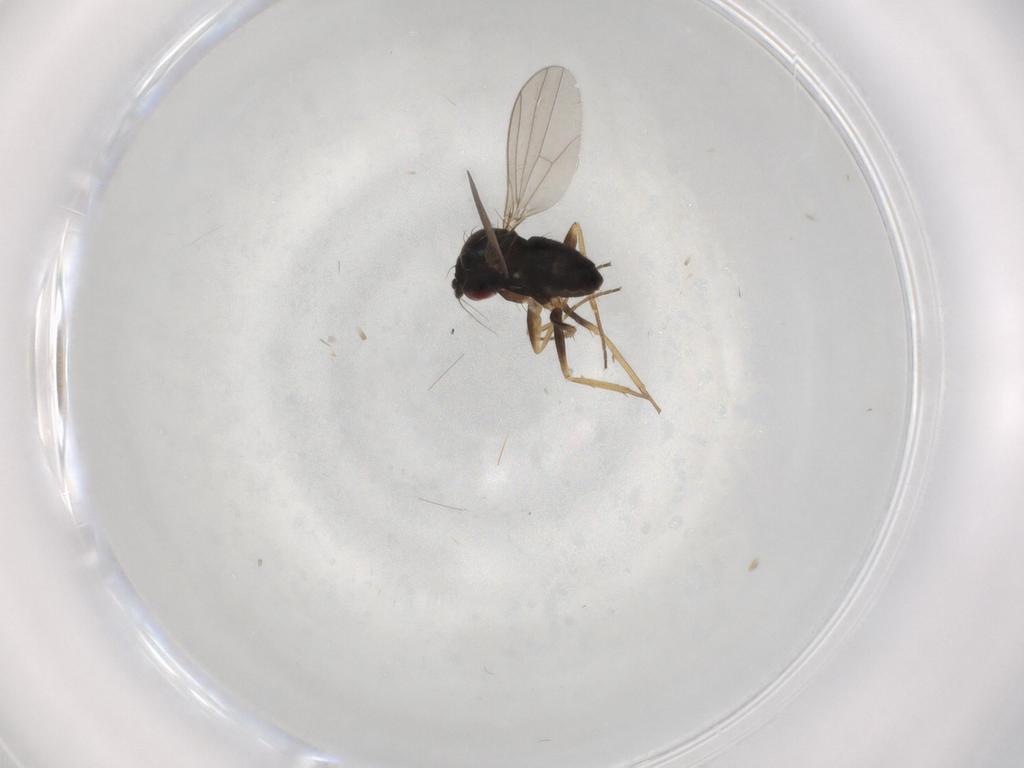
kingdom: Animalia
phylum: Arthropoda
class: Insecta
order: Diptera
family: Dolichopodidae
